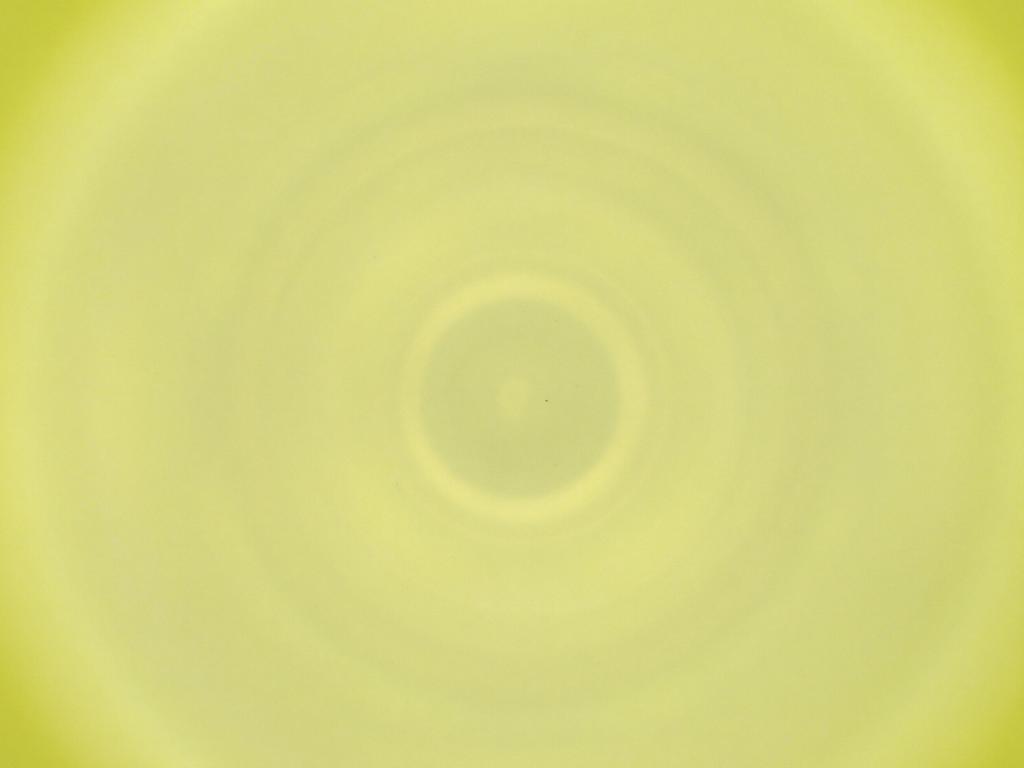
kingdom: Animalia
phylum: Arthropoda
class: Insecta
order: Diptera
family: Cecidomyiidae
